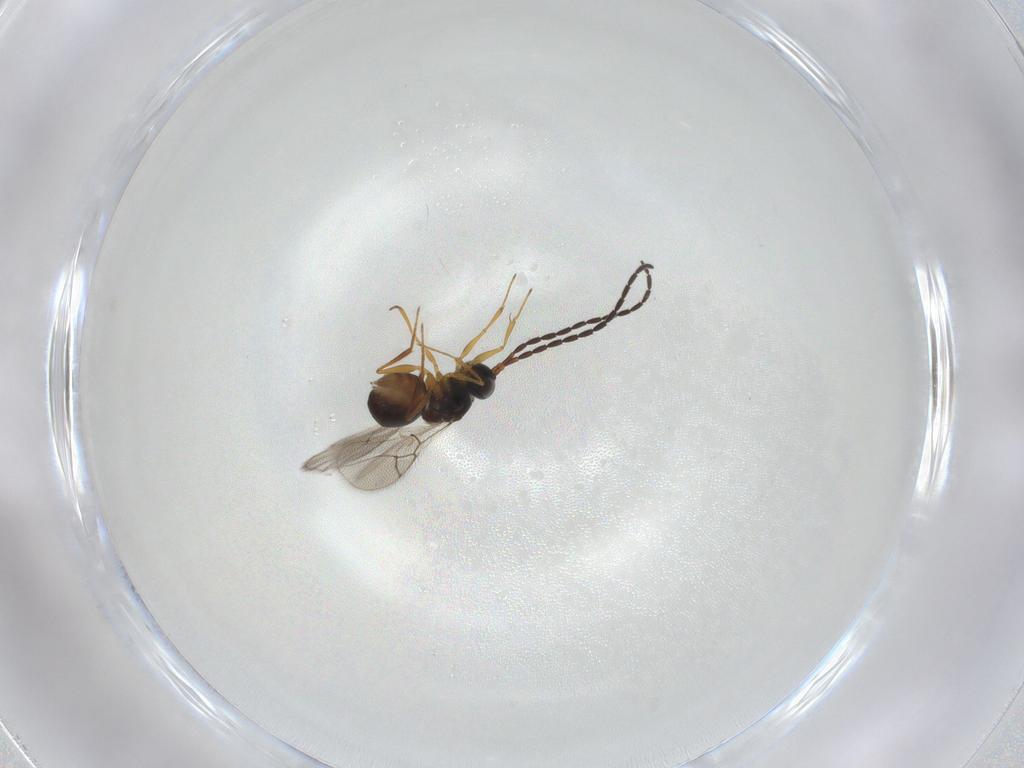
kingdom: Animalia
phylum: Arthropoda
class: Insecta
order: Hymenoptera
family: Figitidae
